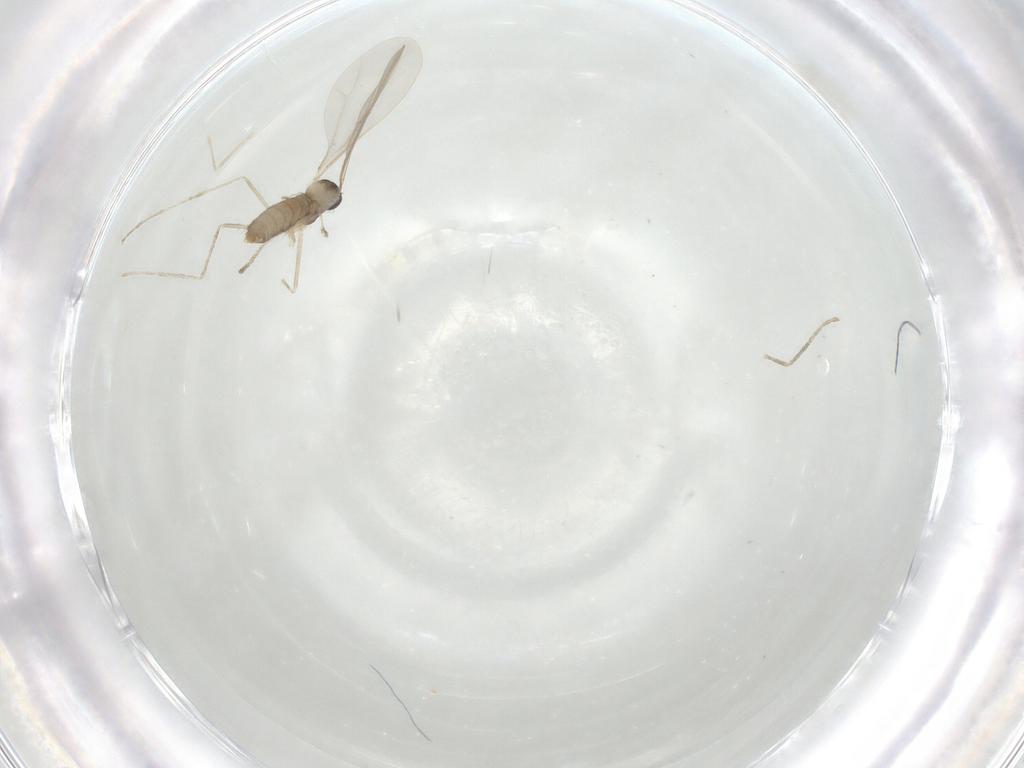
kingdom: Animalia
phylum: Arthropoda
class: Insecta
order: Diptera
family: Cecidomyiidae
